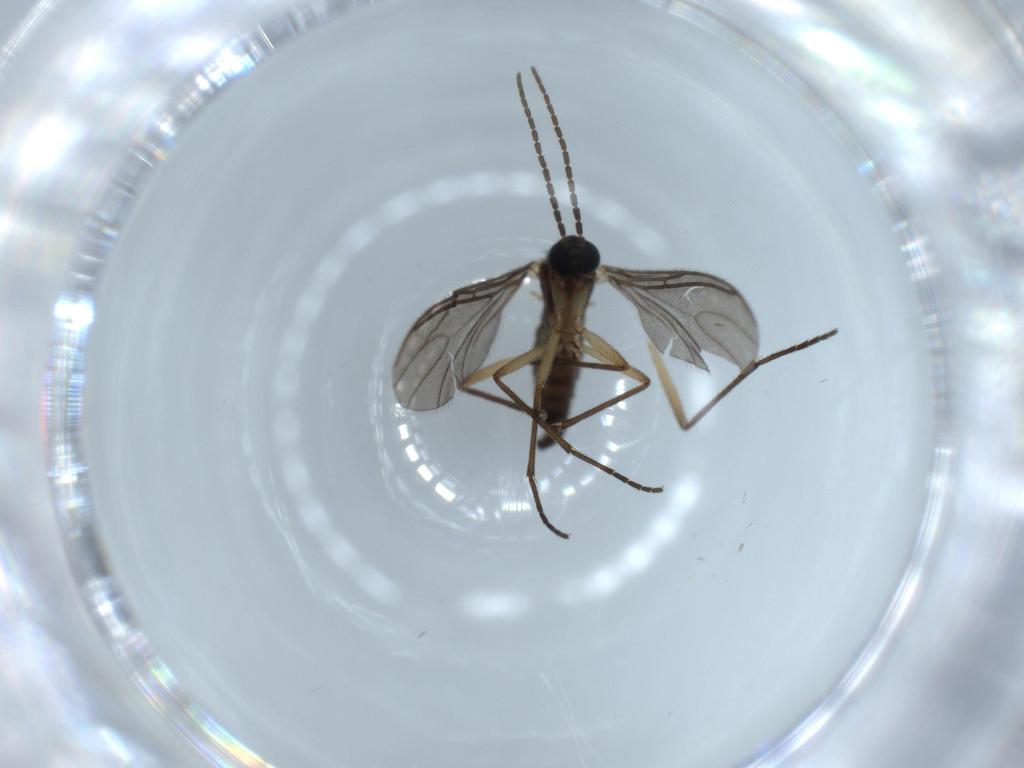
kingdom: Animalia
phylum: Arthropoda
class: Insecta
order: Diptera
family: Sciaridae
